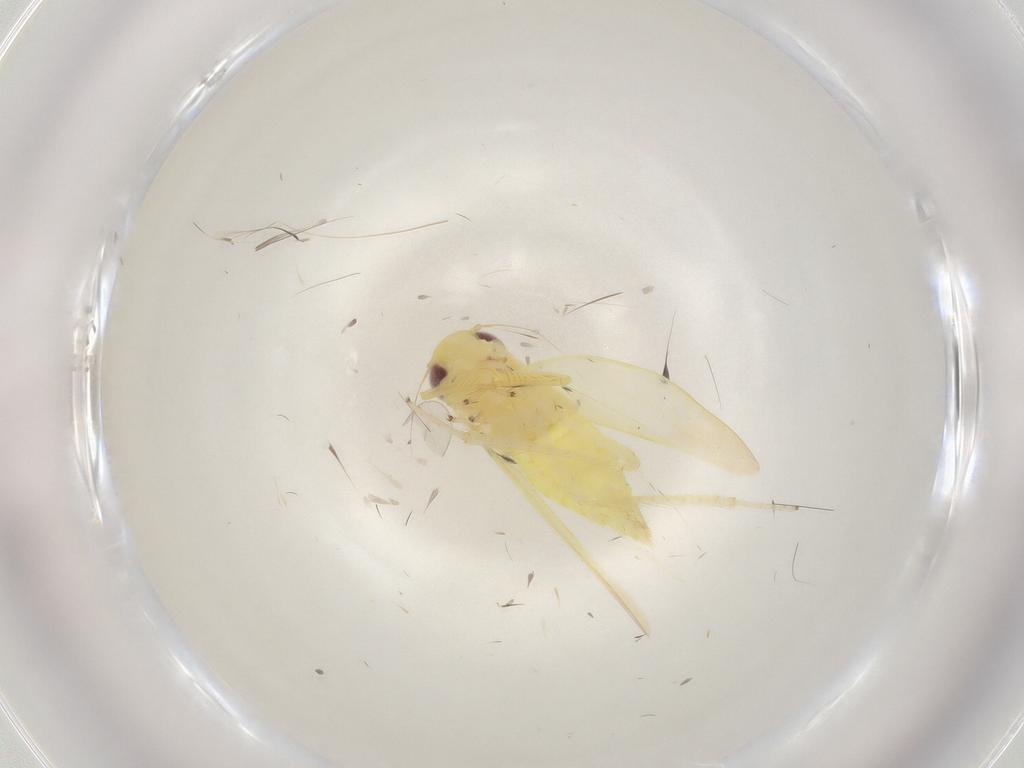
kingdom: Animalia
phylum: Arthropoda
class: Insecta
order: Hemiptera
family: Cicadellidae
